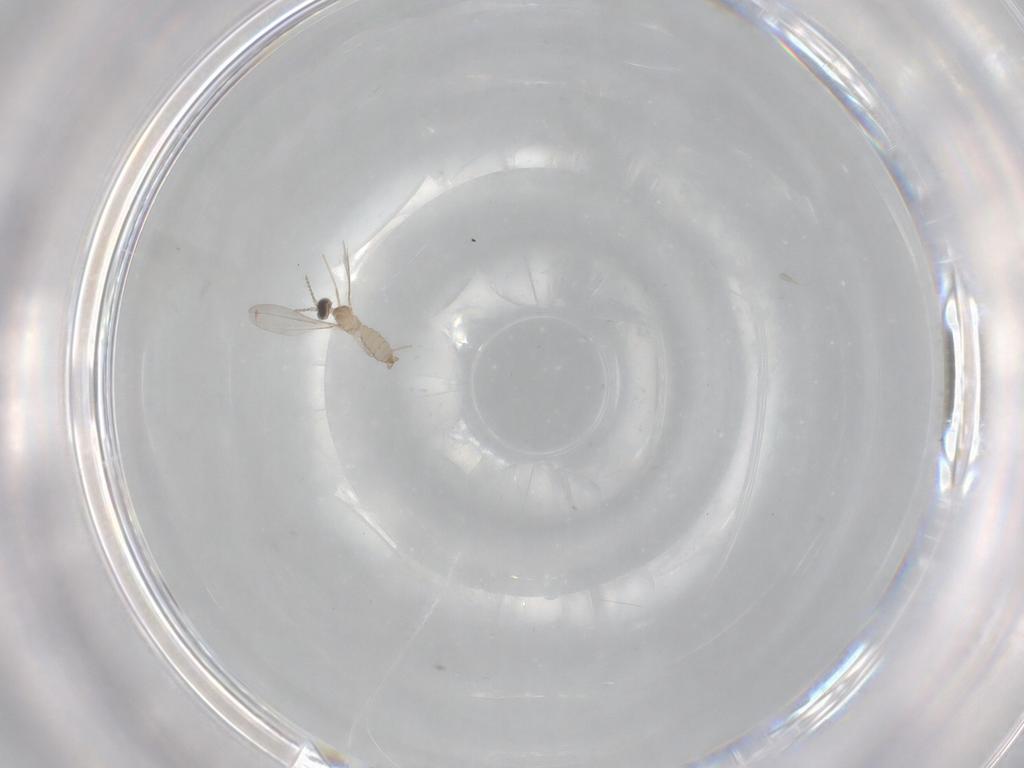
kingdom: Animalia
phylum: Arthropoda
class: Insecta
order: Diptera
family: Cecidomyiidae
